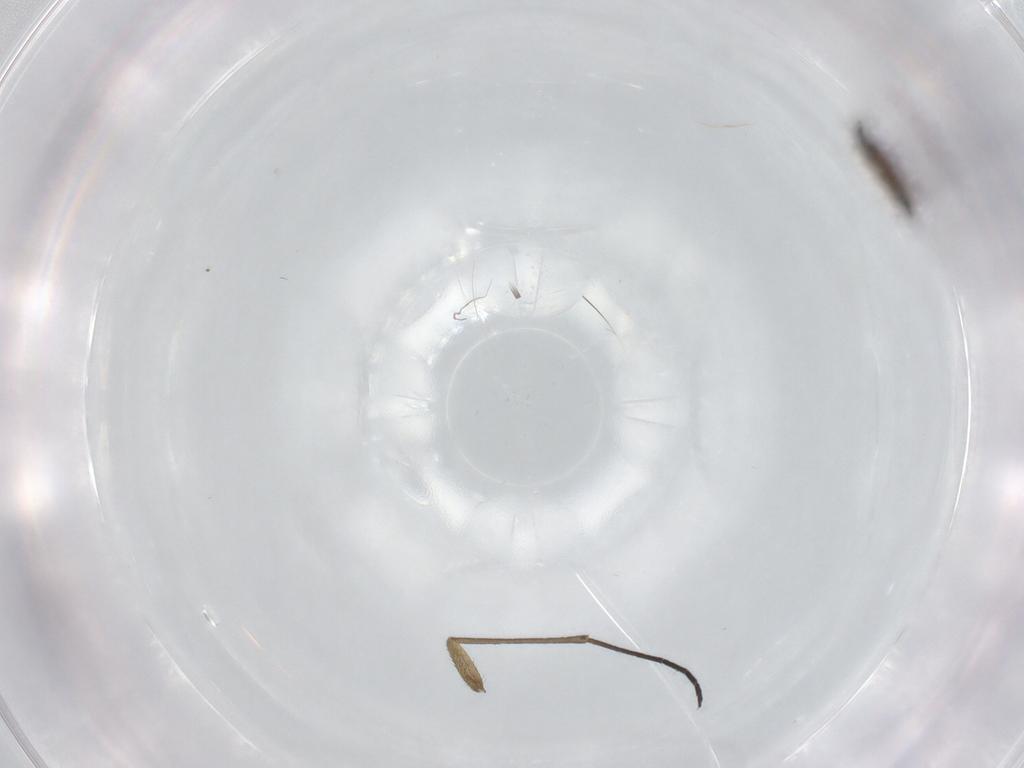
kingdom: Animalia
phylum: Arthropoda
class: Insecta
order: Diptera
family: Sciaridae
